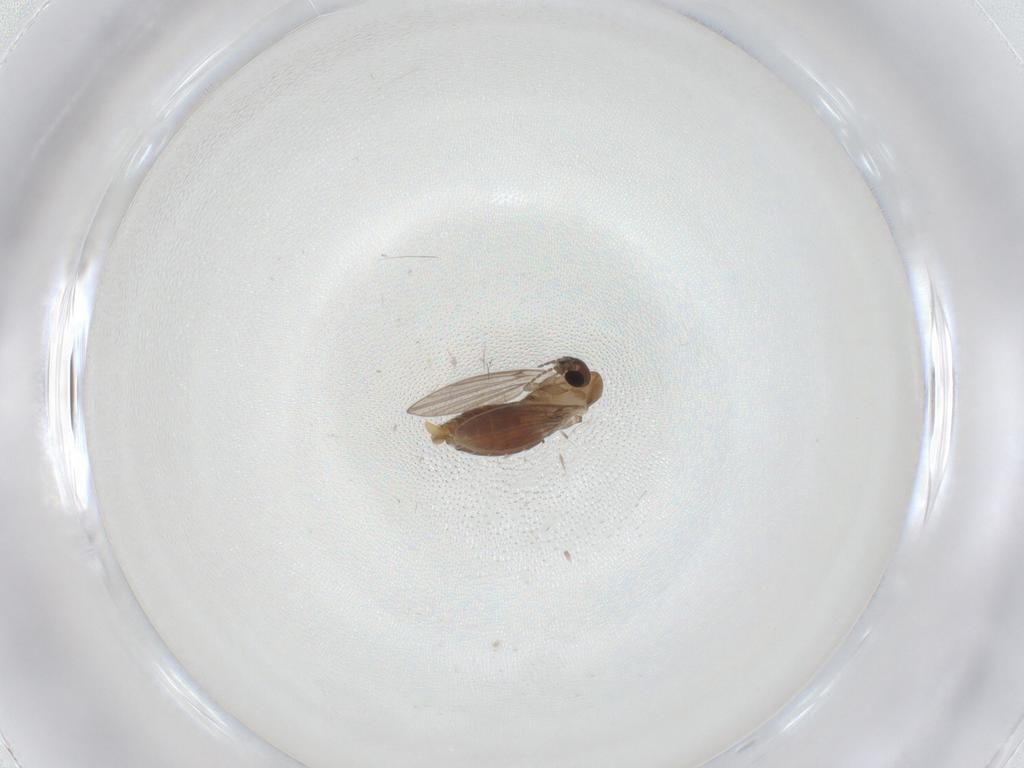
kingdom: Animalia
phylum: Arthropoda
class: Insecta
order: Diptera
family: Psychodidae
